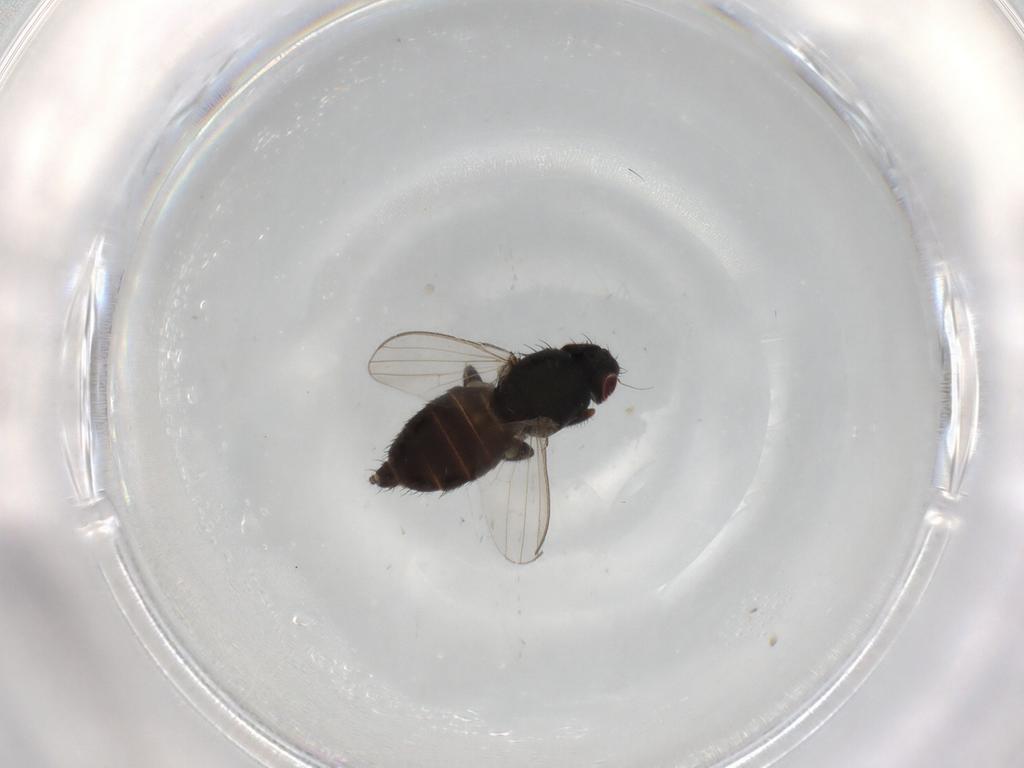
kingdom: Animalia
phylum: Arthropoda
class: Insecta
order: Diptera
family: Milichiidae
